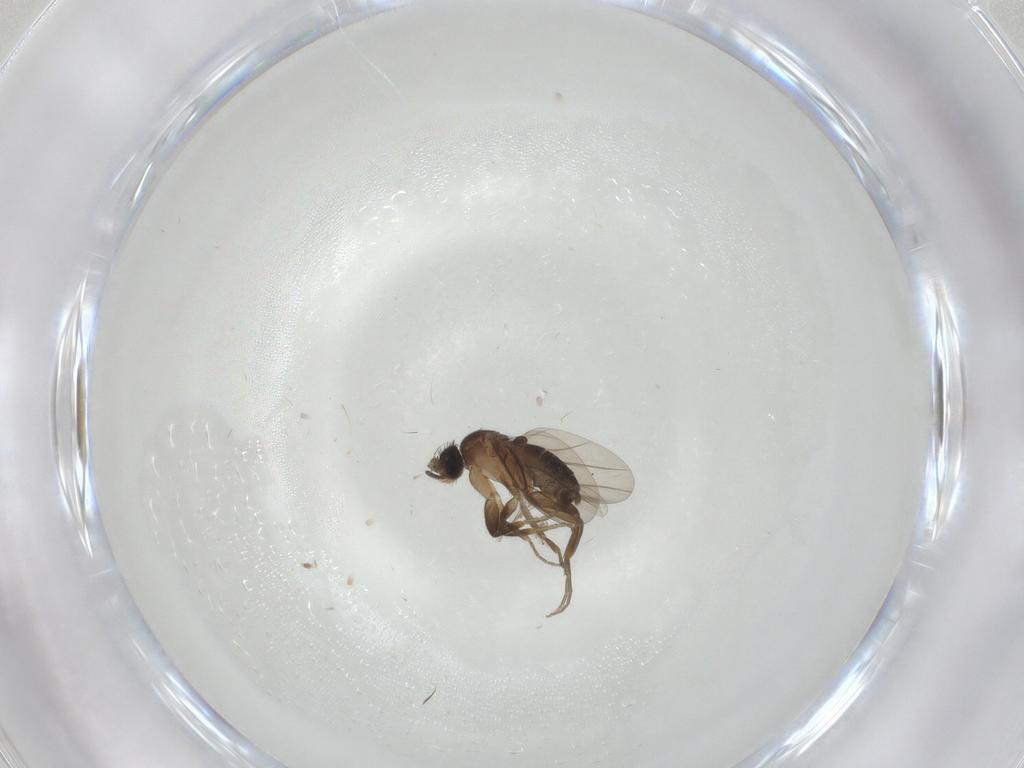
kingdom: Animalia
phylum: Arthropoda
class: Insecta
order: Diptera
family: Phoridae
